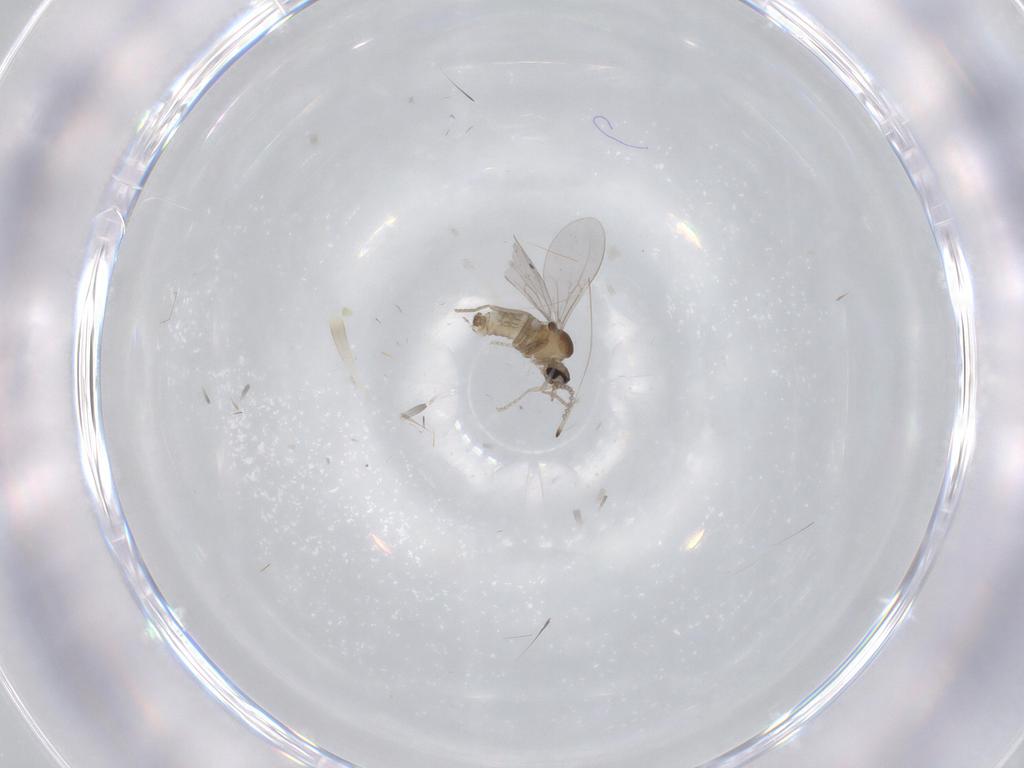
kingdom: Animalia
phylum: Arthropoda
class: Insecta
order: Diptera
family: Cecidomyiidae
